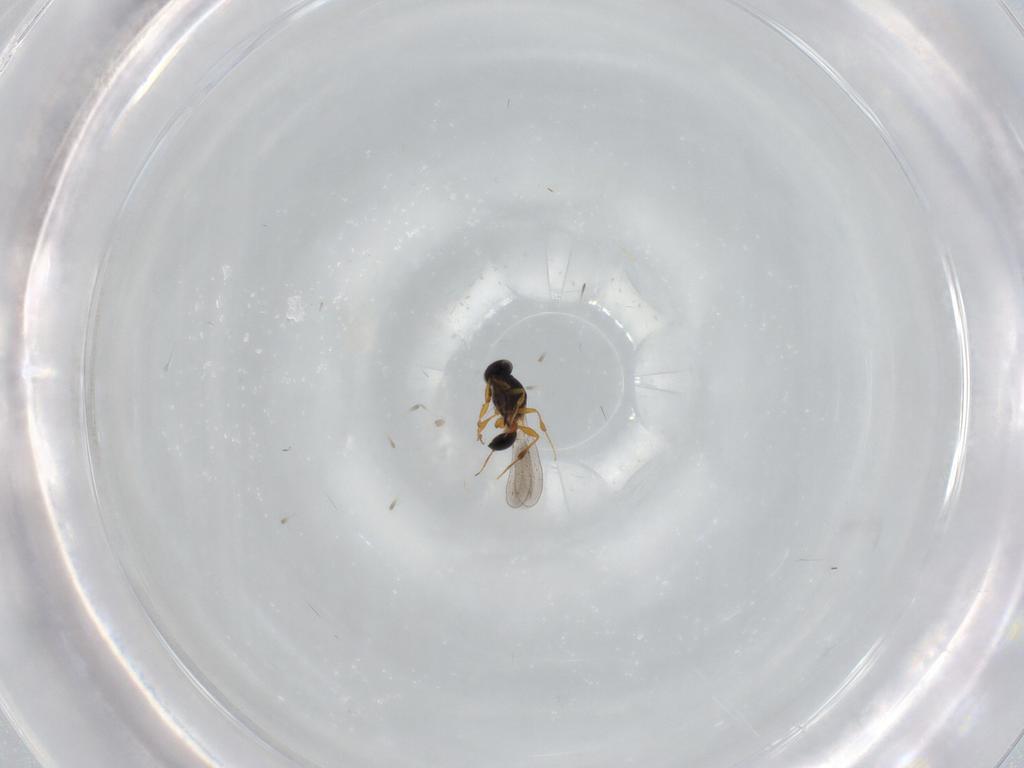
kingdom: Animalia
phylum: Arthropoda
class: Insecta
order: Hymenoptera
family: Platygastridae
